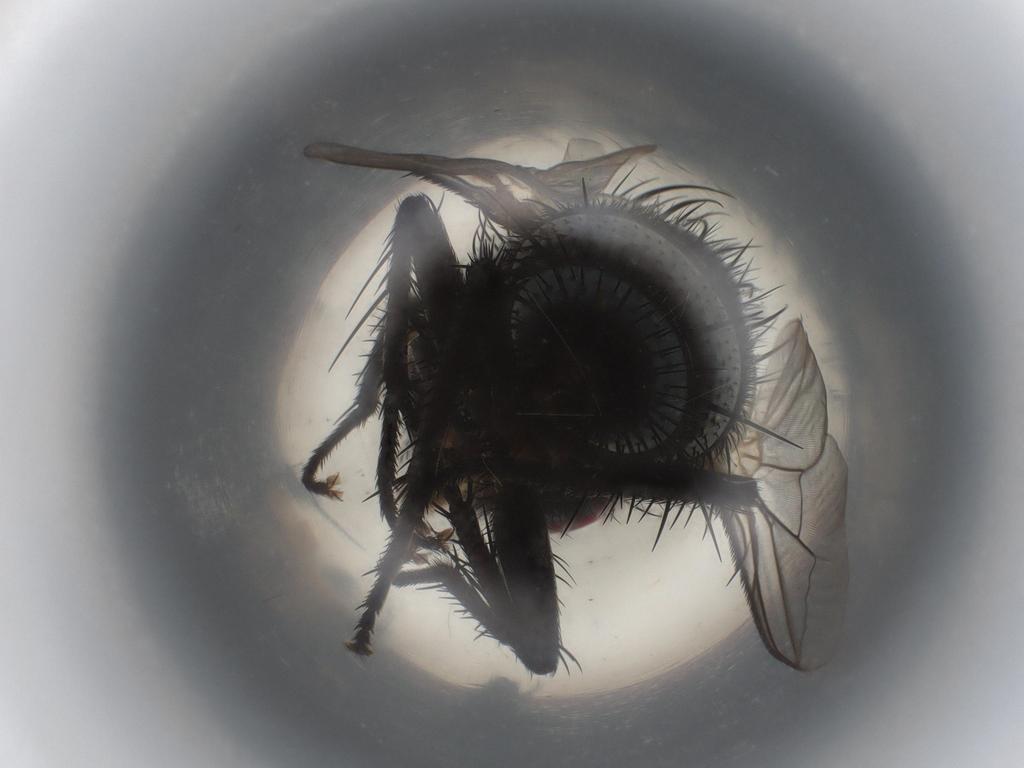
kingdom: Animalia
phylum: Arthropoda
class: Insecta
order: Diptera
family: Tachinidae
